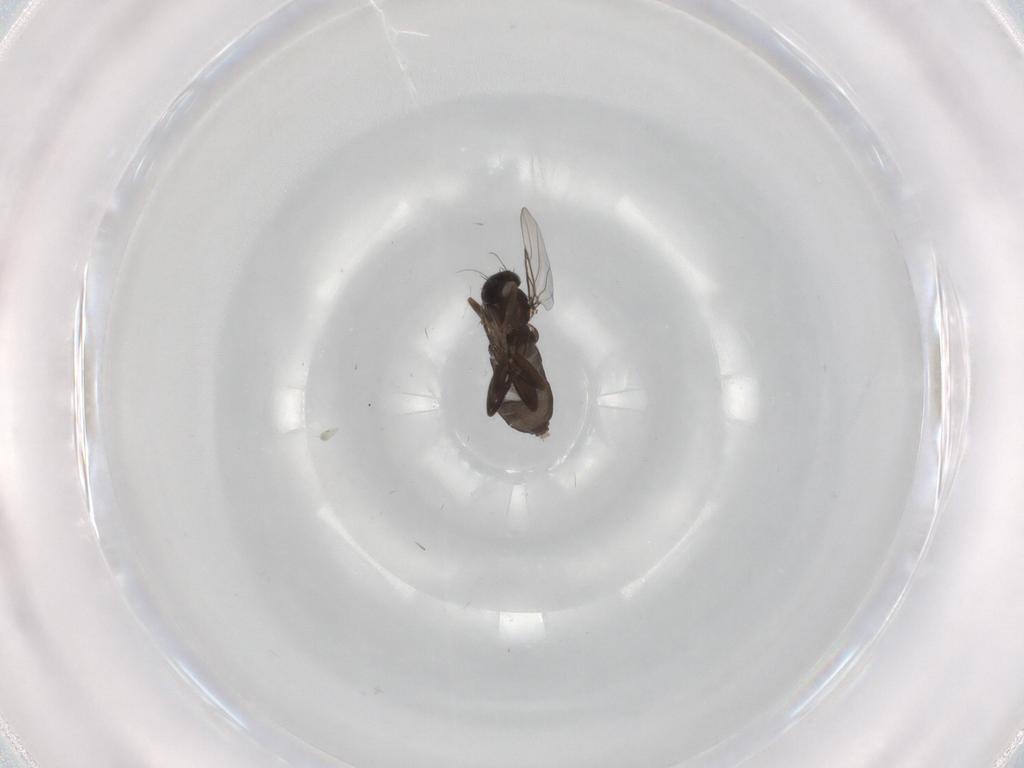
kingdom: Animalia
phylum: Arthropoda
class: Insecta
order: Diptera
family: Phoridae
